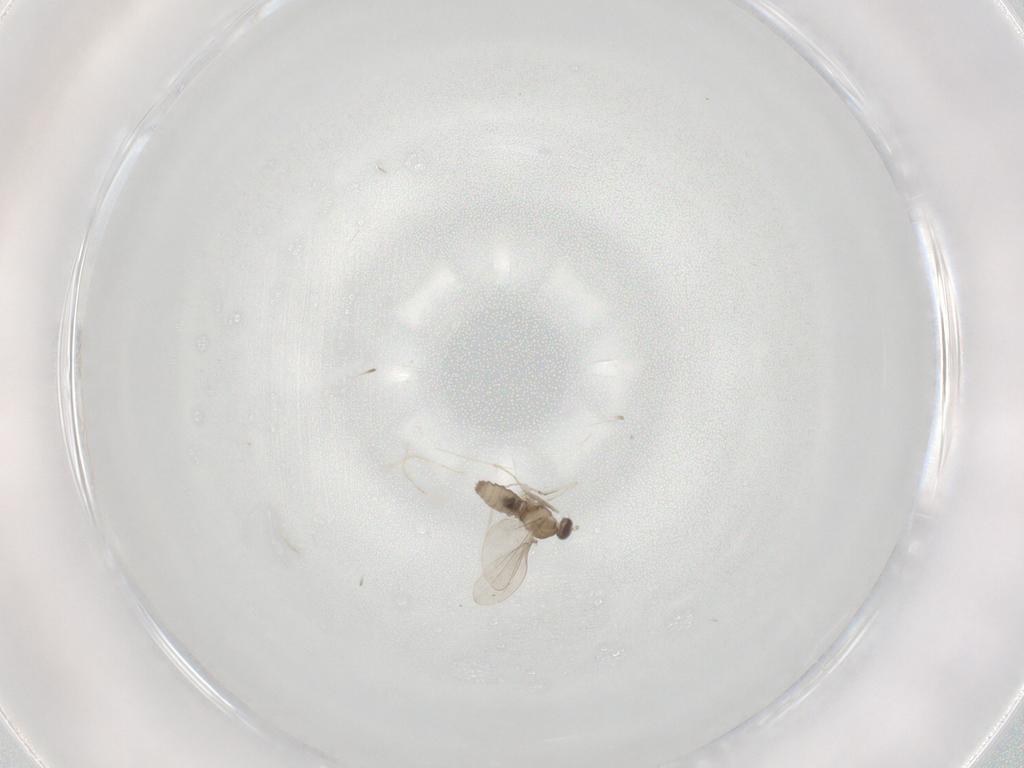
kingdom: Animalia
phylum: Arthropoda
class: Insecta
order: Diptera
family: Cecidomyiidae
